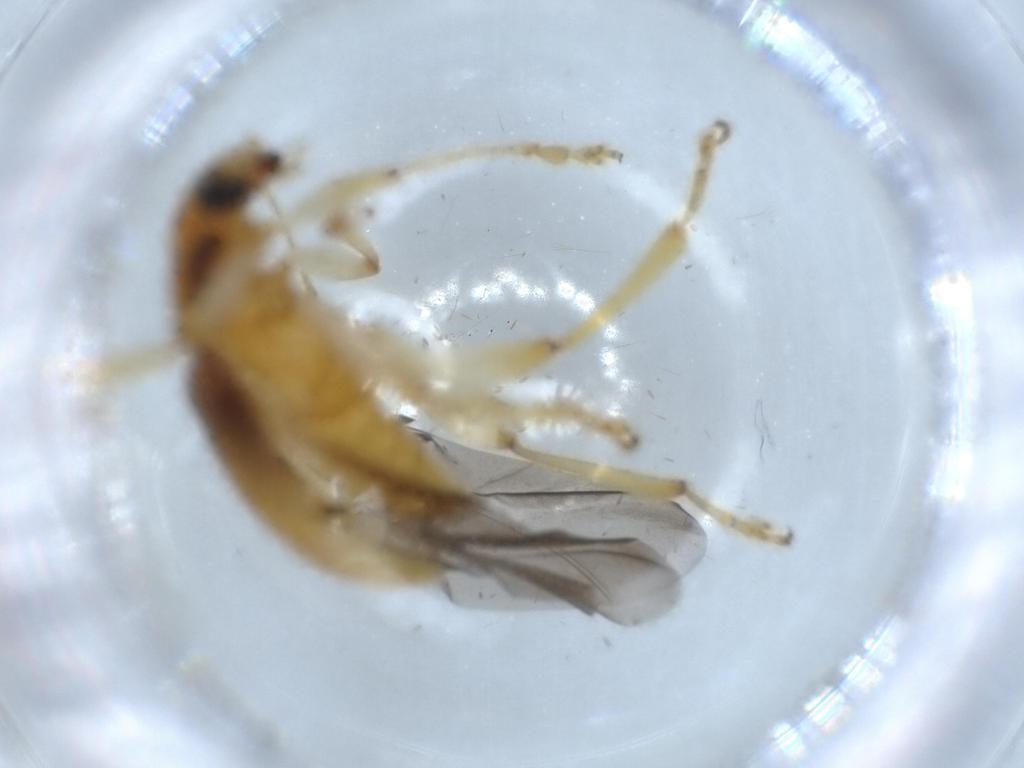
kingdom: Animalia
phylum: Arthropoda
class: Insecta
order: Coleoptera
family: Chrysomelidae
